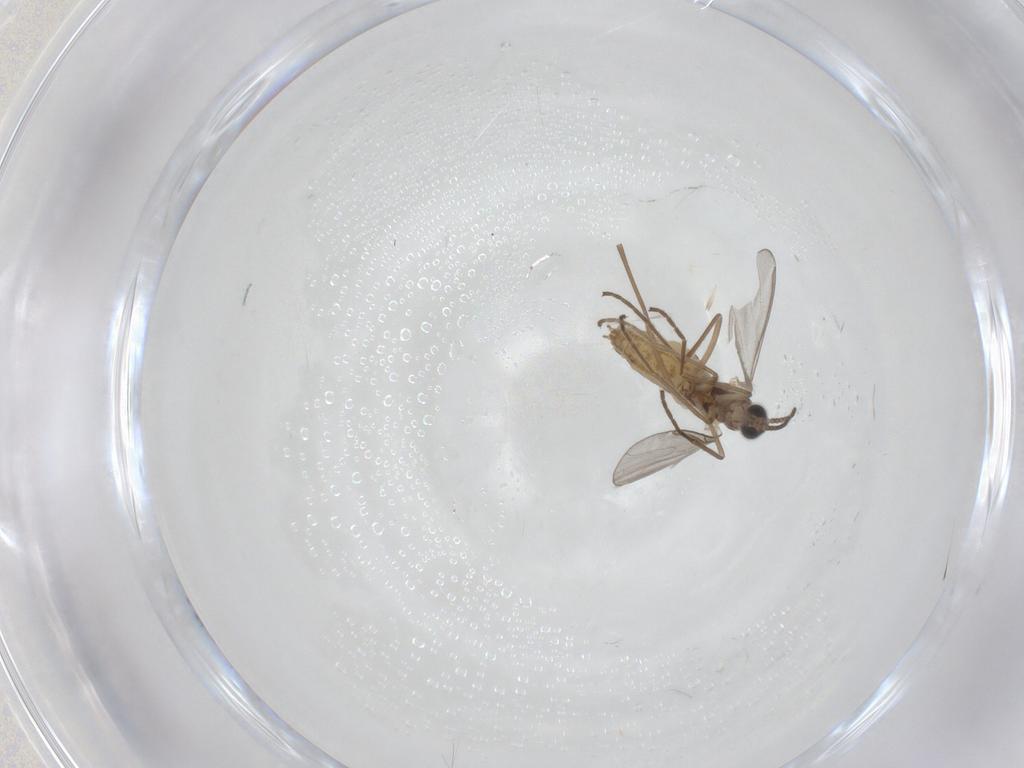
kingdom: Animalia
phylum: Arthropoda
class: Insecta
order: Diptera
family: Cecidomyiidae
